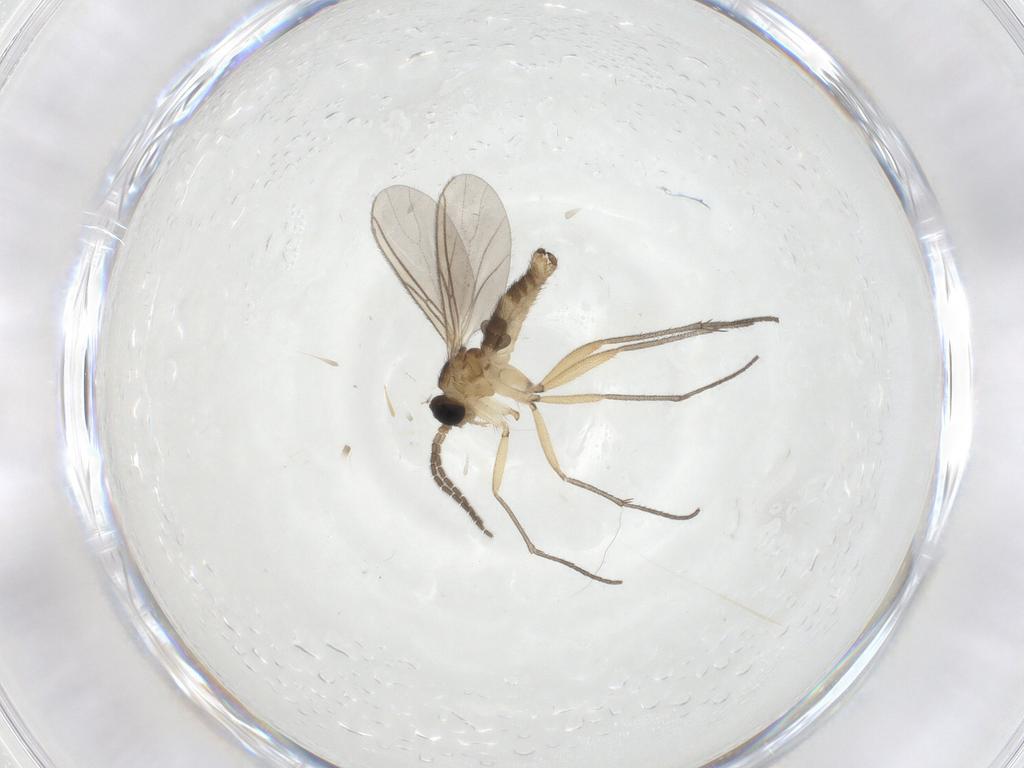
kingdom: Animalia
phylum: Arthropoda
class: Insecta
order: Diptera
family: Sciaridae
